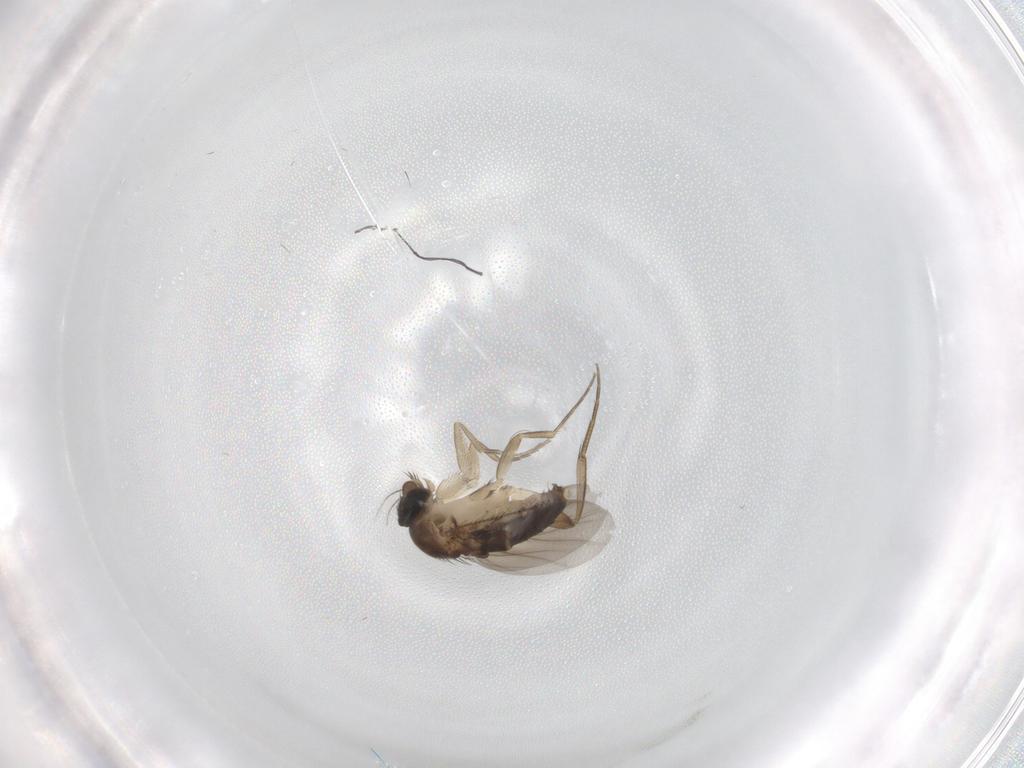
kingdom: Animalia
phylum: Arthropoda
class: Insecta
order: Diptera
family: Phoridae
